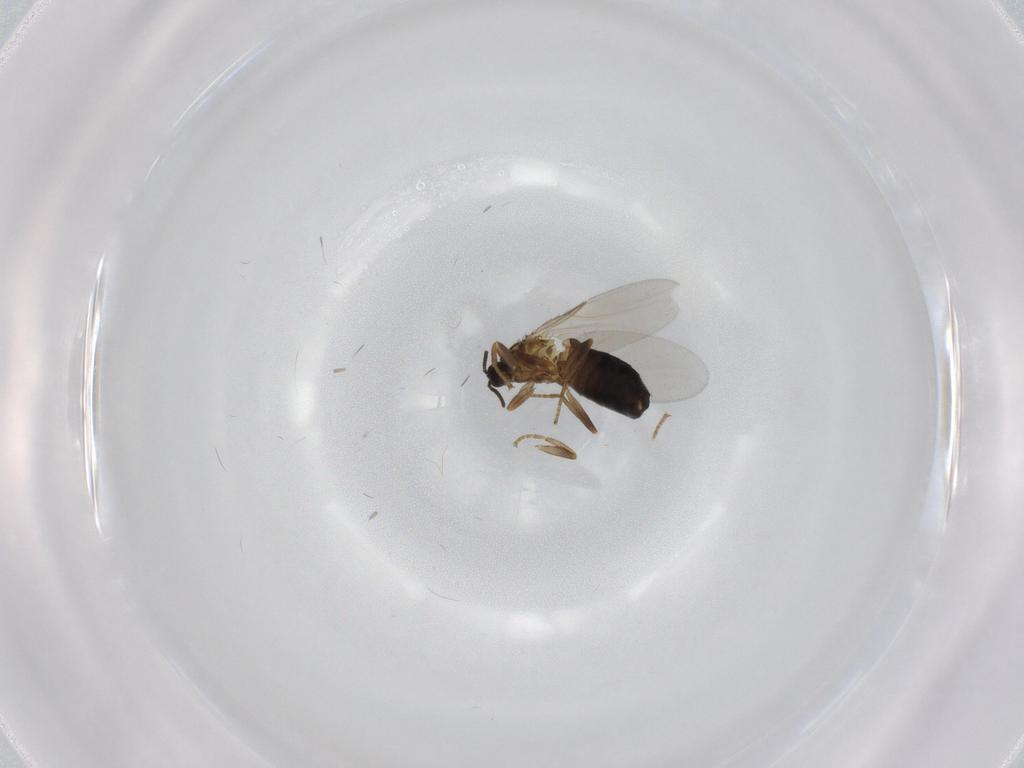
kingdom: Animalia
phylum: Arthropoda
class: Insecta
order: Diptera
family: Scatopsidae
